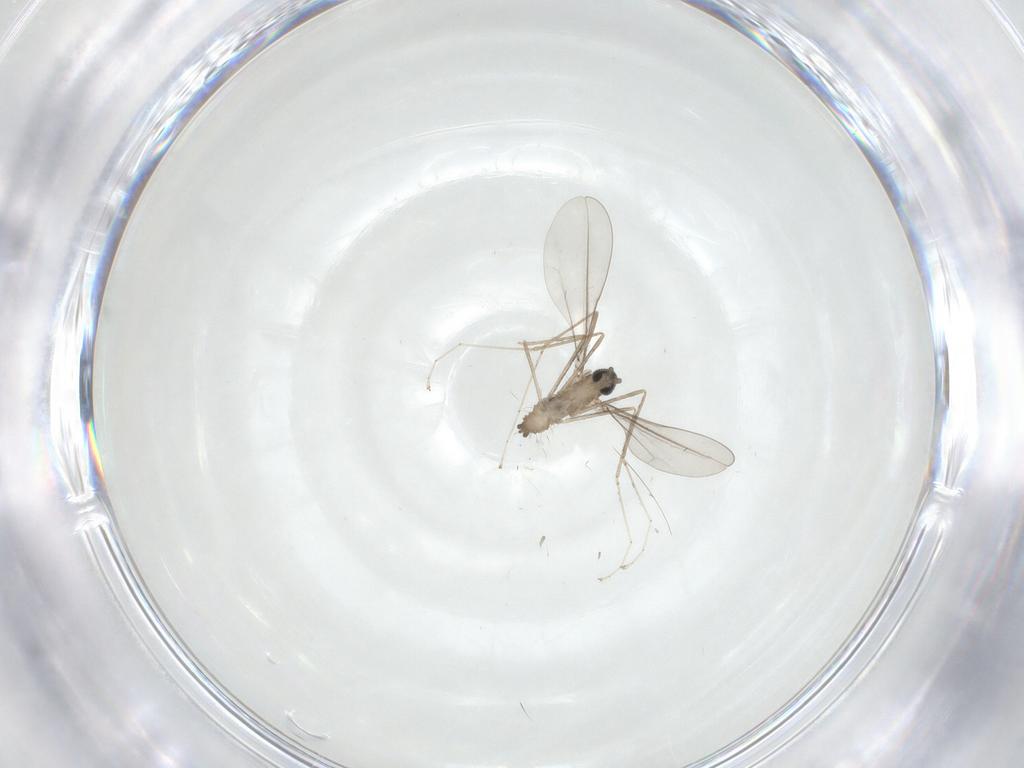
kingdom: Animalia
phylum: Arthropoda
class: Insecta
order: Diptera
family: Cecidomyiidae
